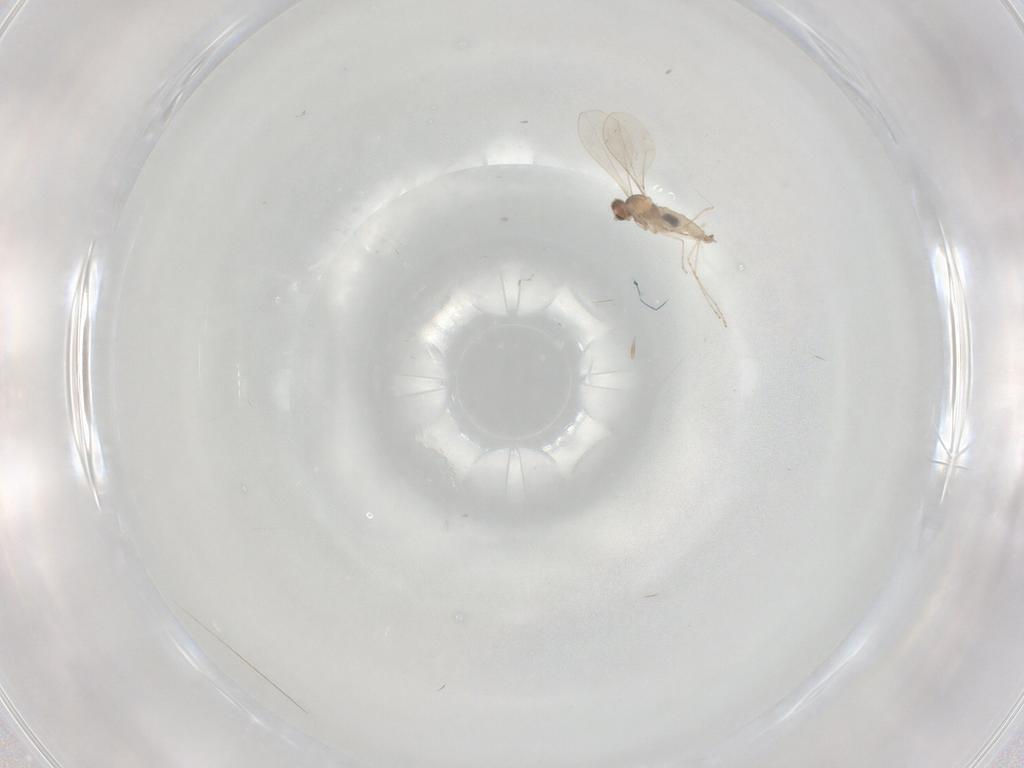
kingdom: Animalia
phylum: Arthropoda
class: Insecta
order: Diptera
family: Cecidomyiidae
